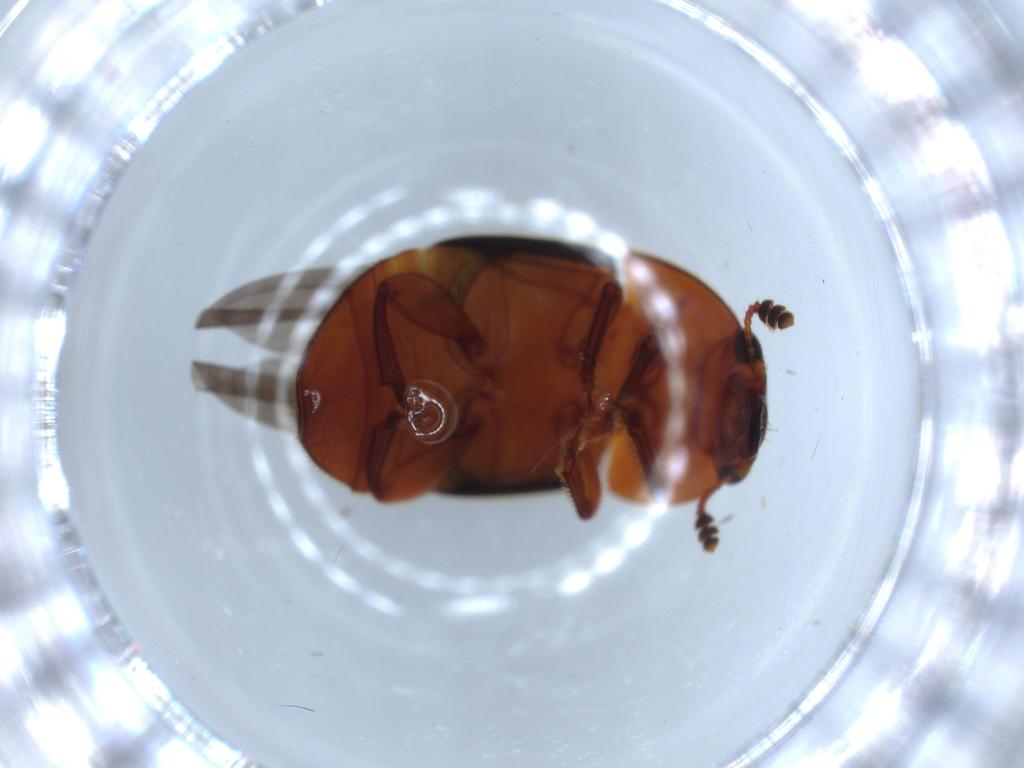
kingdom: Animalia
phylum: Arthropoda
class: Insecta
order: Coleoptera
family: Nitidulidae
